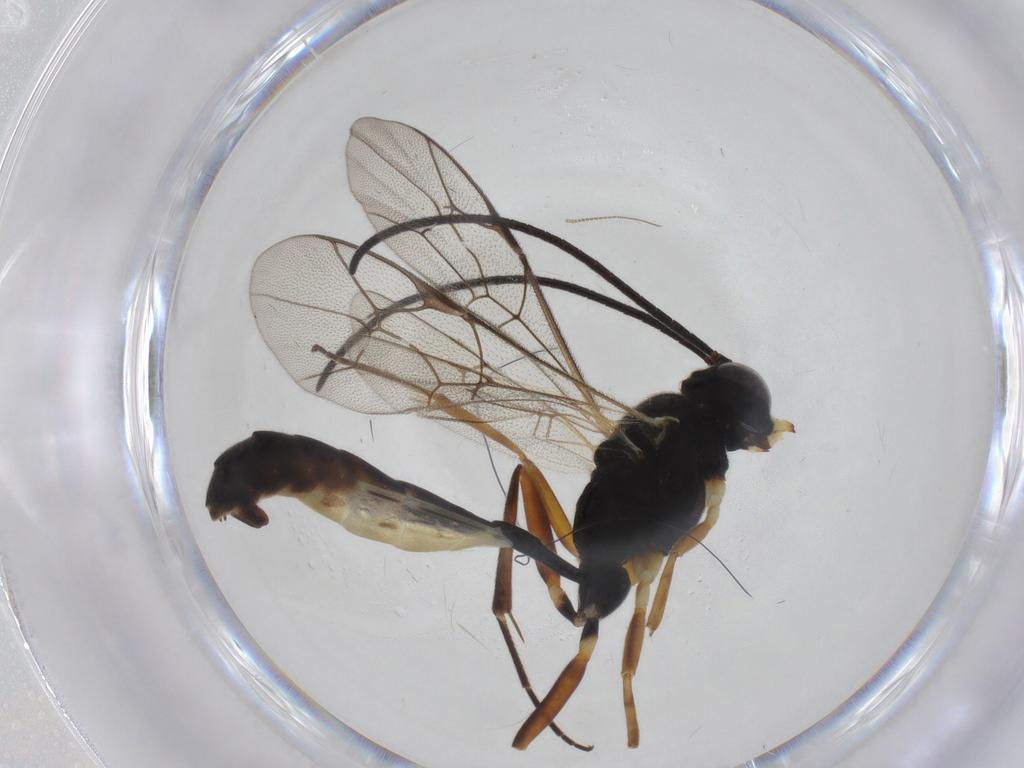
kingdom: Animalia
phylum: Arthropoda
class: Insecta
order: Hymenoptera
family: Ichneumonidae
